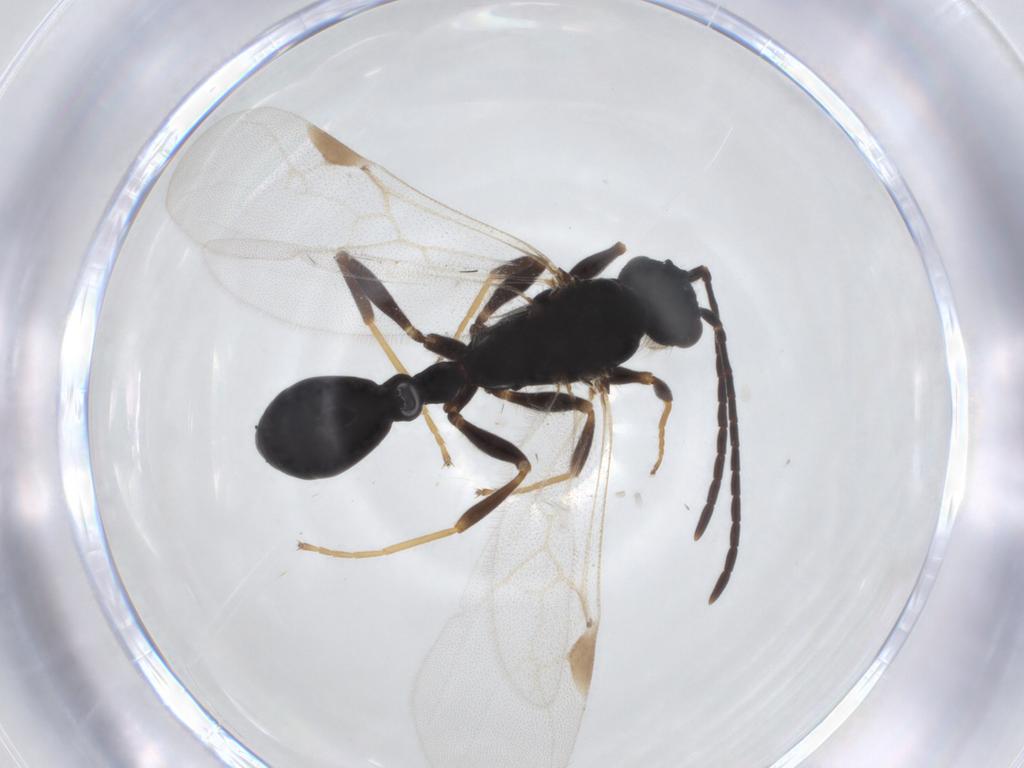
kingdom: Animalia
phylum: Arthropoda
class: Insecta
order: Hymenoptera
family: Formicidae
